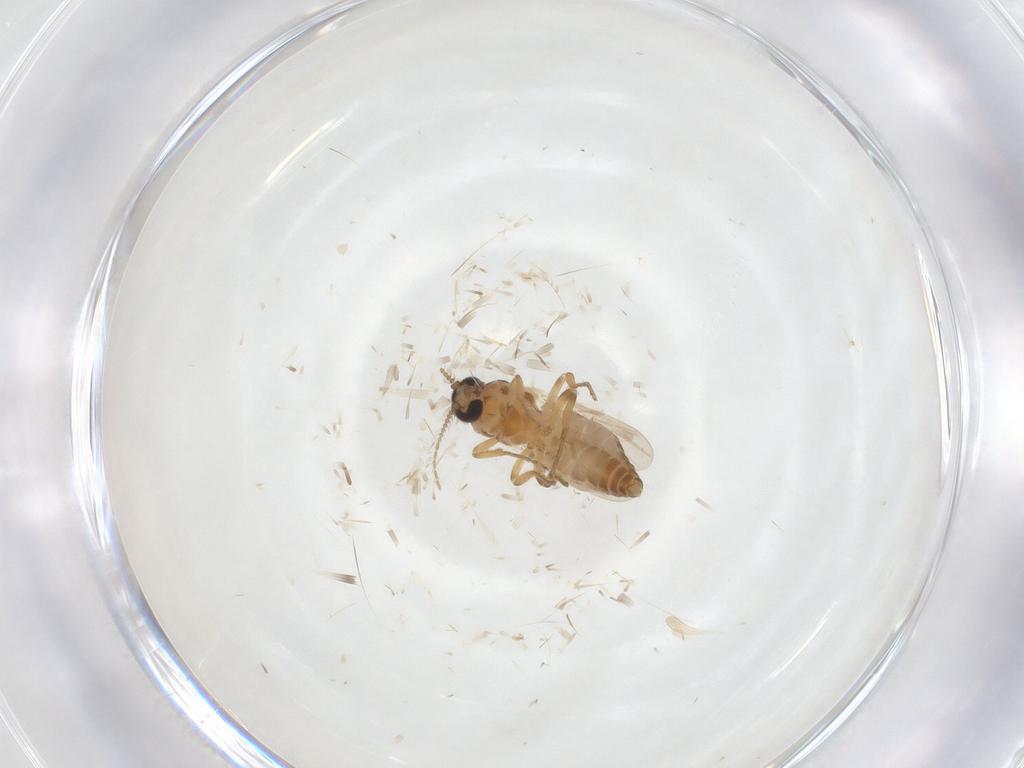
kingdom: Animalia
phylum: Arthropoda
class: Insecta
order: Diptera
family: Ceratopogonidae
